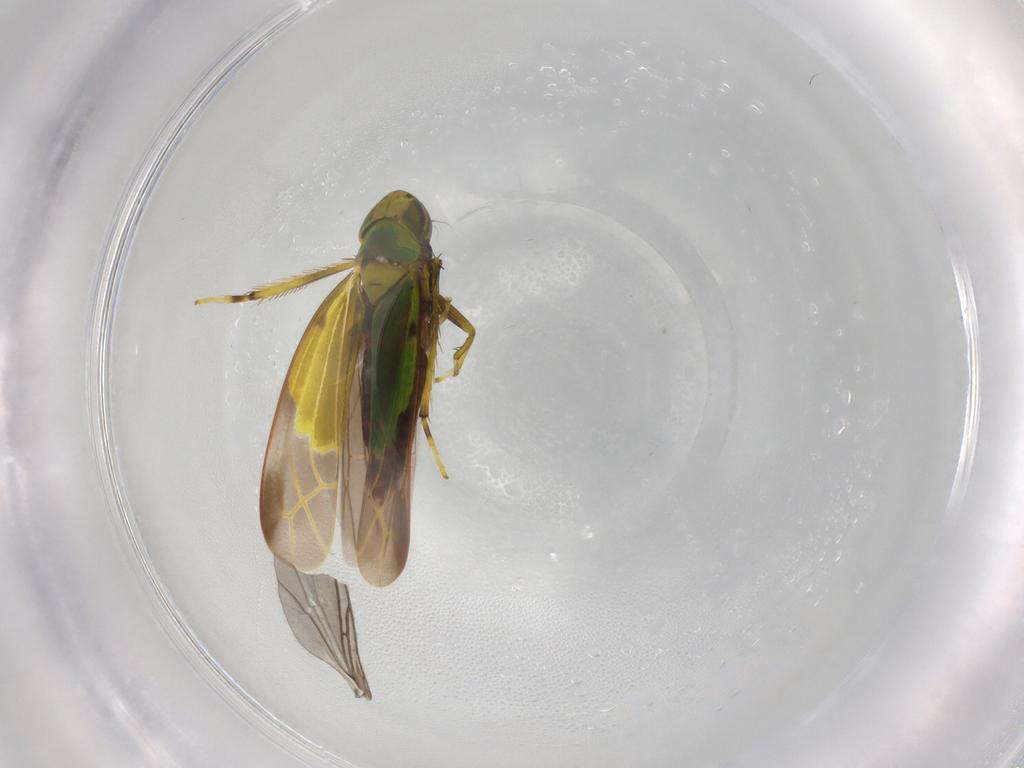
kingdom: Animalia
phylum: Arthropoda
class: Insecta
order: Hemiptera
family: Cicadellidae
